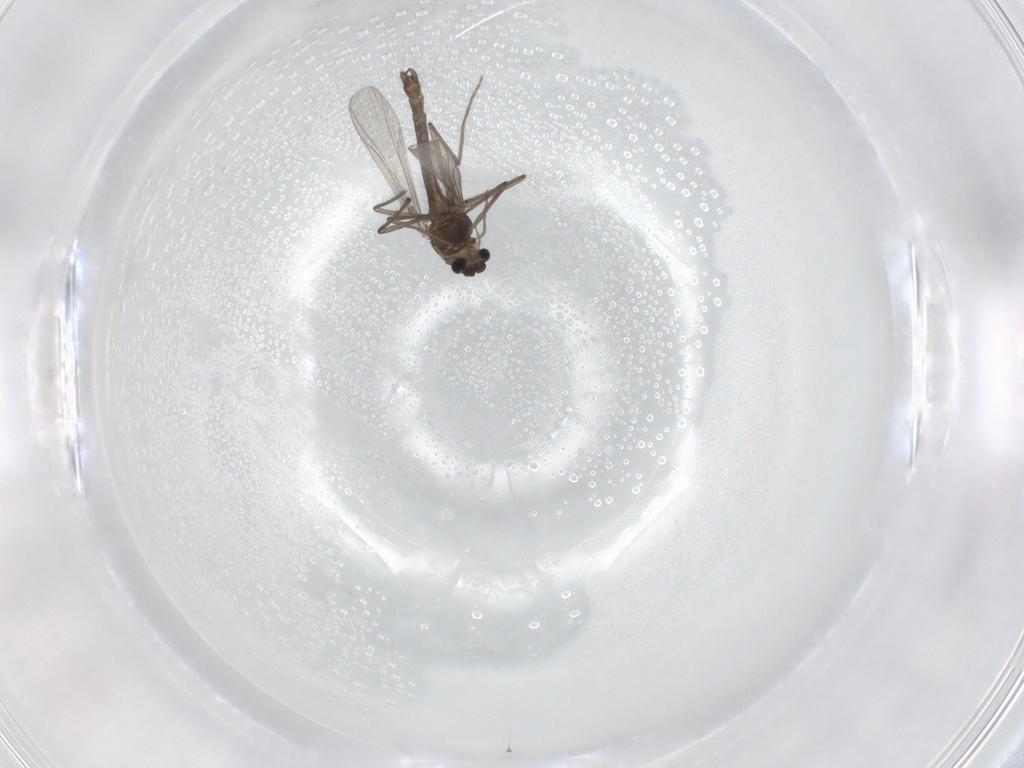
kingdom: Animalia
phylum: Arthropoda
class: Insecta
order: Diptera
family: Chironomidae
